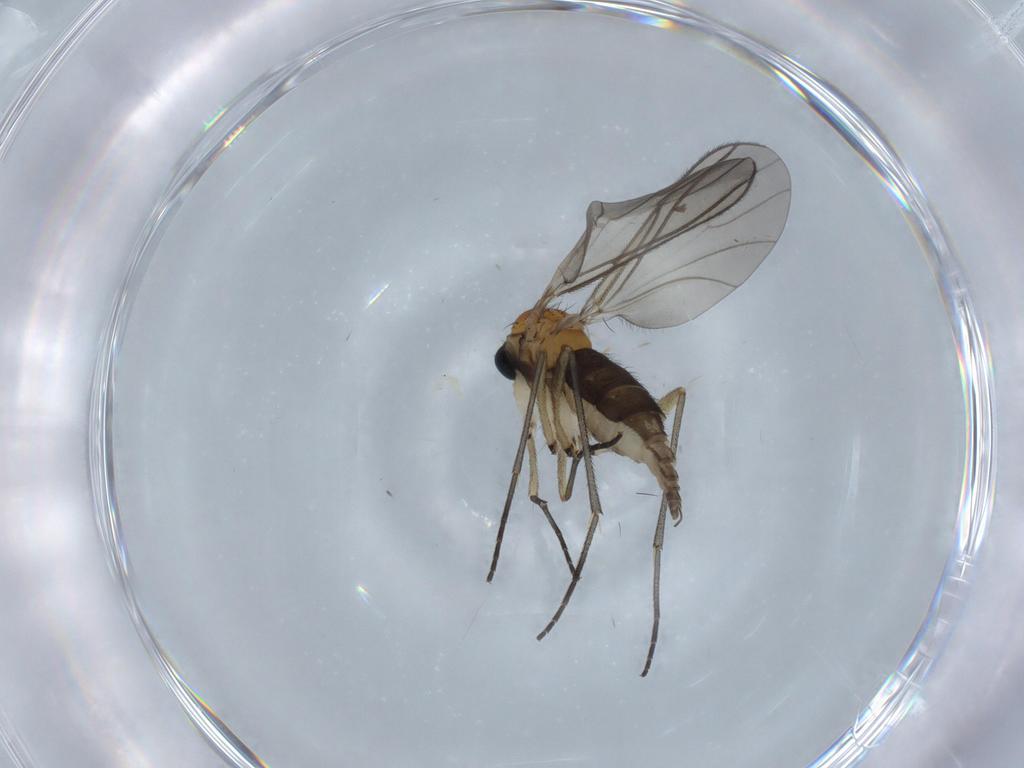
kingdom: Animalia
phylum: Arthropoda
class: Insecta
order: Diptera
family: Sciaridae
